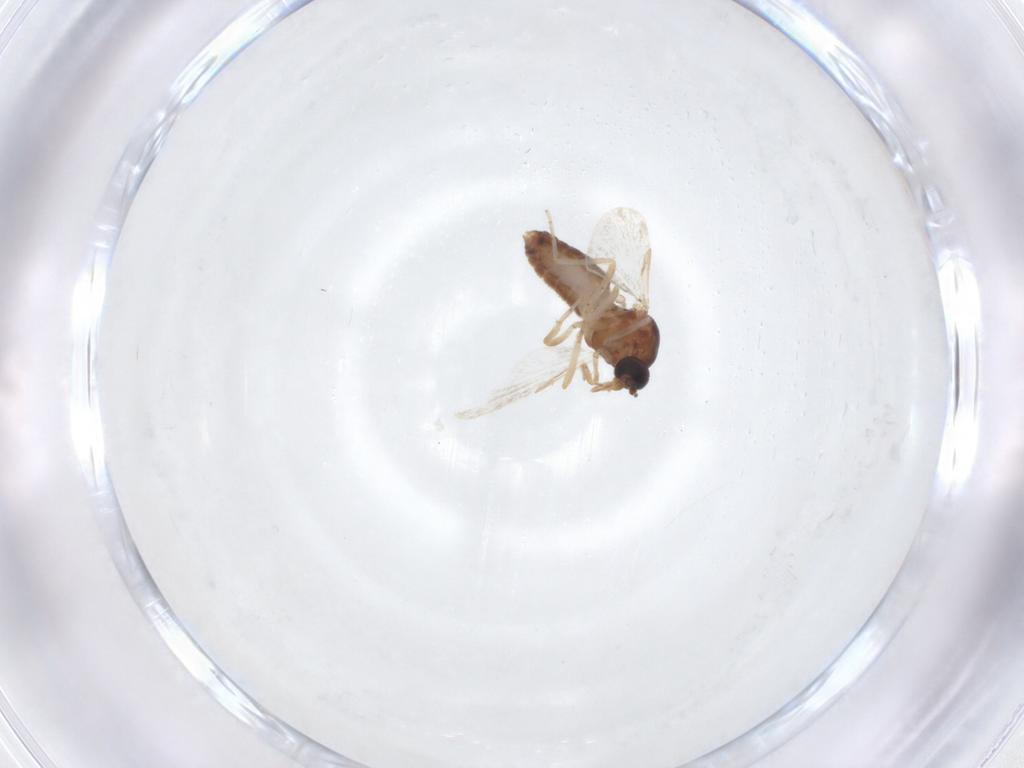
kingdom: Animalia
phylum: Arthropoda
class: Insecta
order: Diptera
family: Ceratopogonidae
